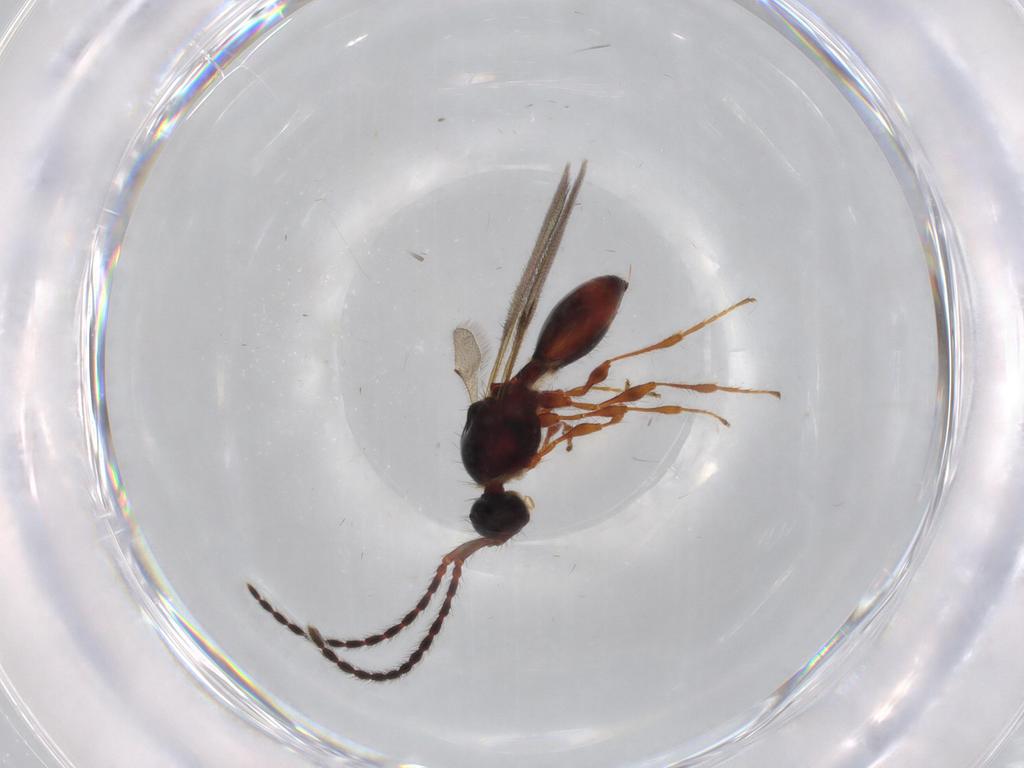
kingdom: Animalia
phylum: Arthropoda
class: Insecta
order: Hymenoptera
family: Diapriidae
